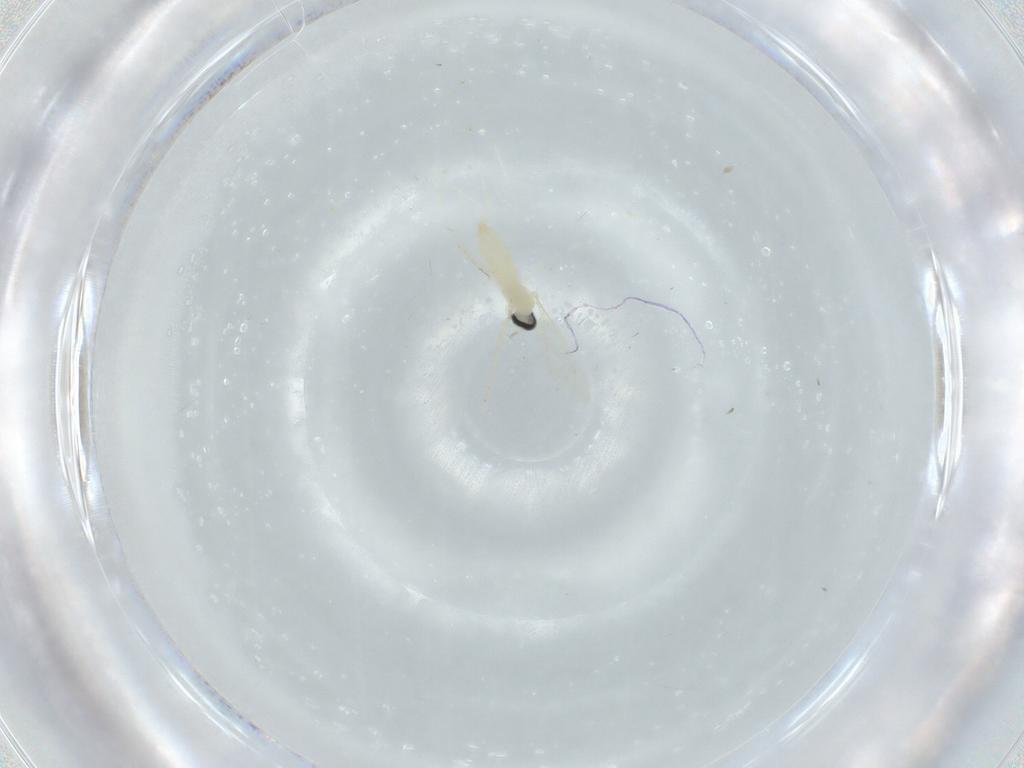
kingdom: Animalia
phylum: Arthropoda
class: Insecta
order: Diptera
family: Cecidomyiidae
